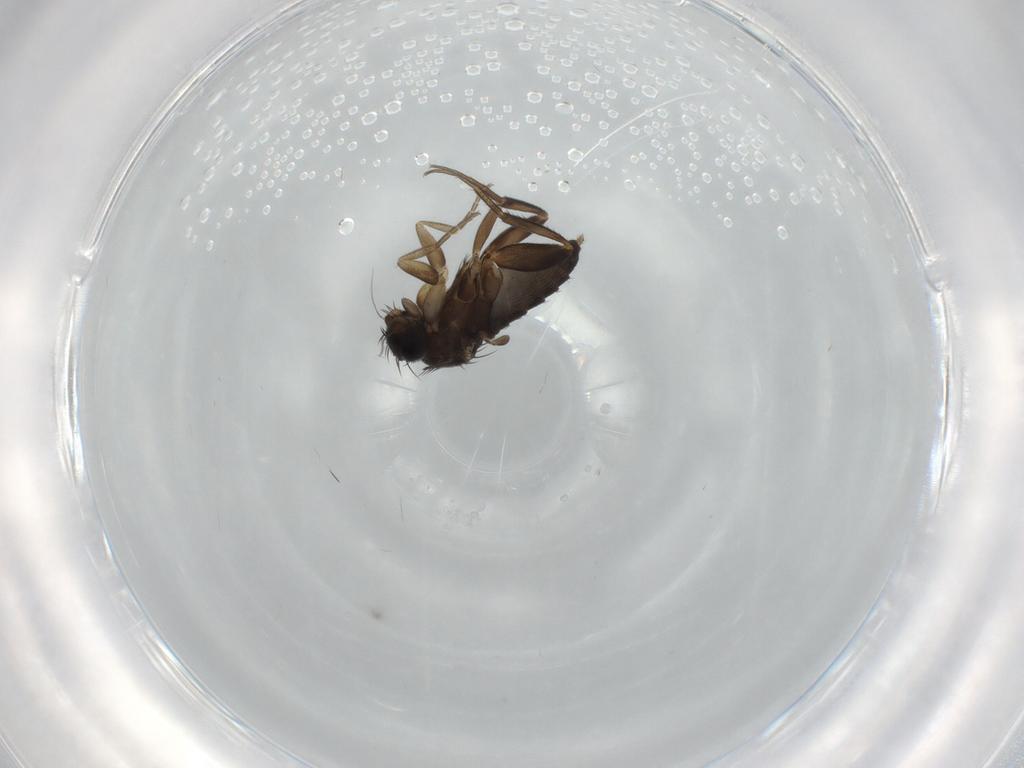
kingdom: Animalia
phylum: Arthropoda
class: Insecta
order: Diptera
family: Phoridae
